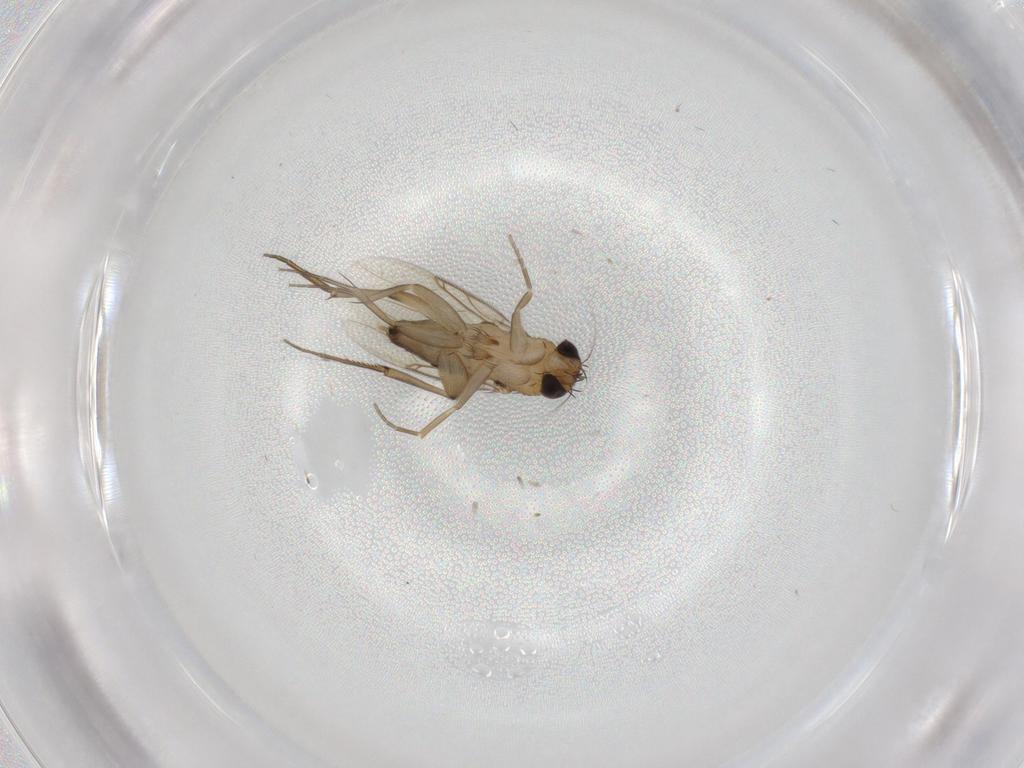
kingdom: Animalia
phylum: Arthropoda
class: Insecta
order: Diptera
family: Phoridae
